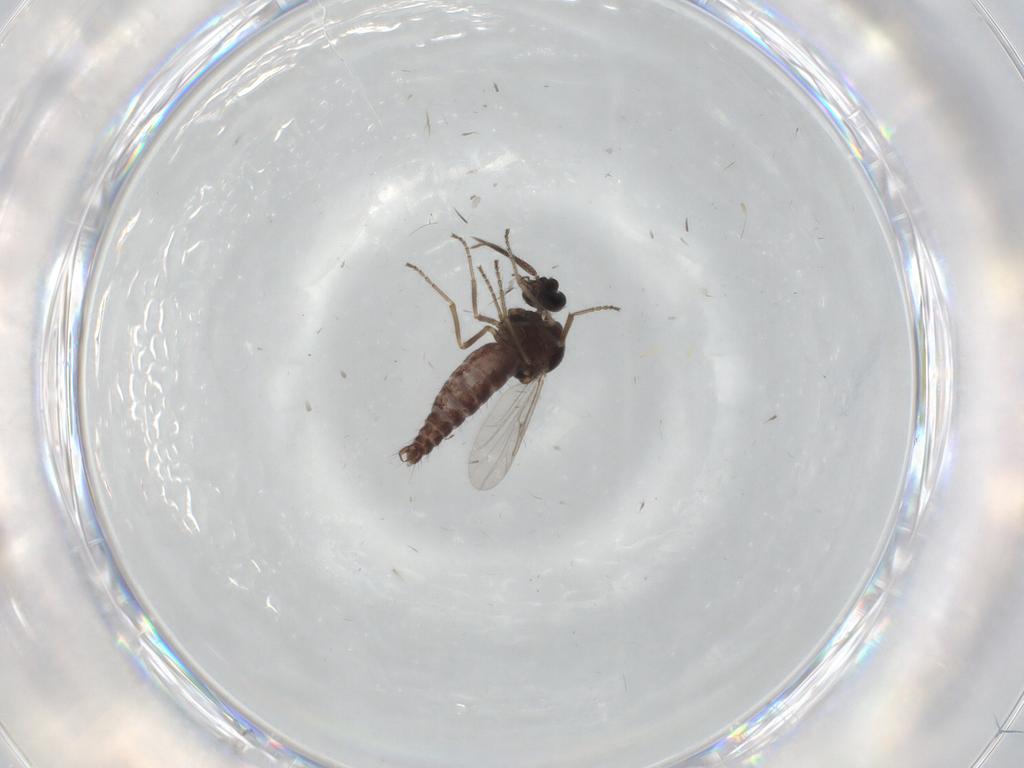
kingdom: Animalia
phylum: Arthropoda
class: Insecta
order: Diptera
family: Ceratopogonidae
